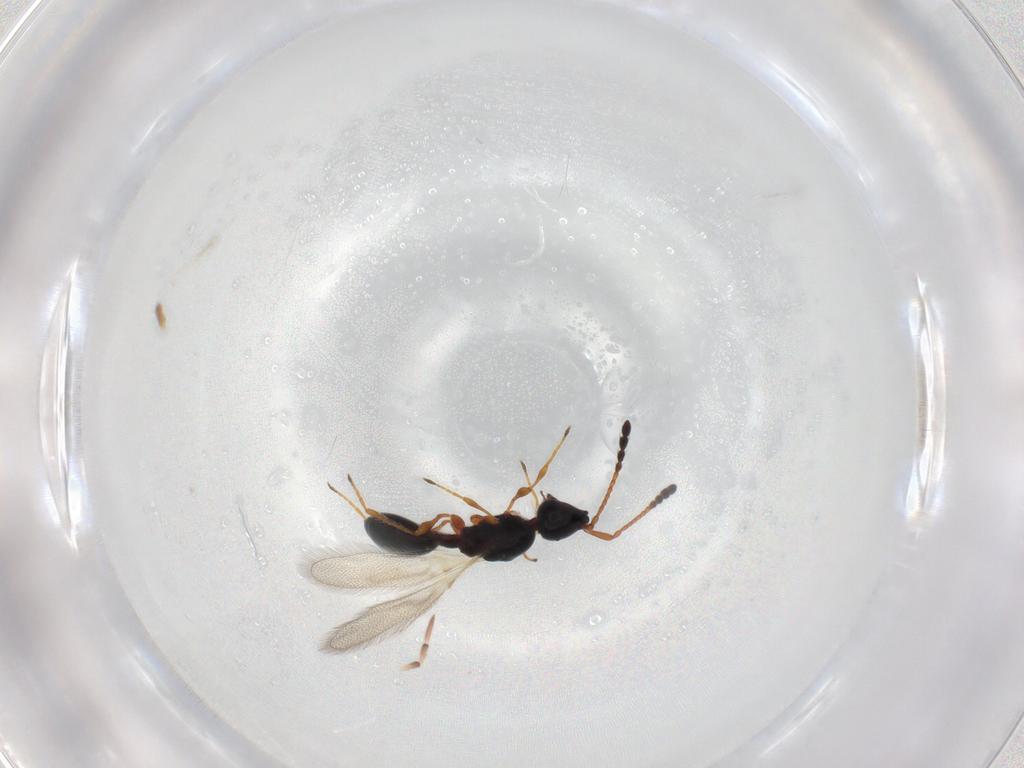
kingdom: Animalia
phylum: Arthropoda
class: Insecta
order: Hymenoptera
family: Diapriidae
